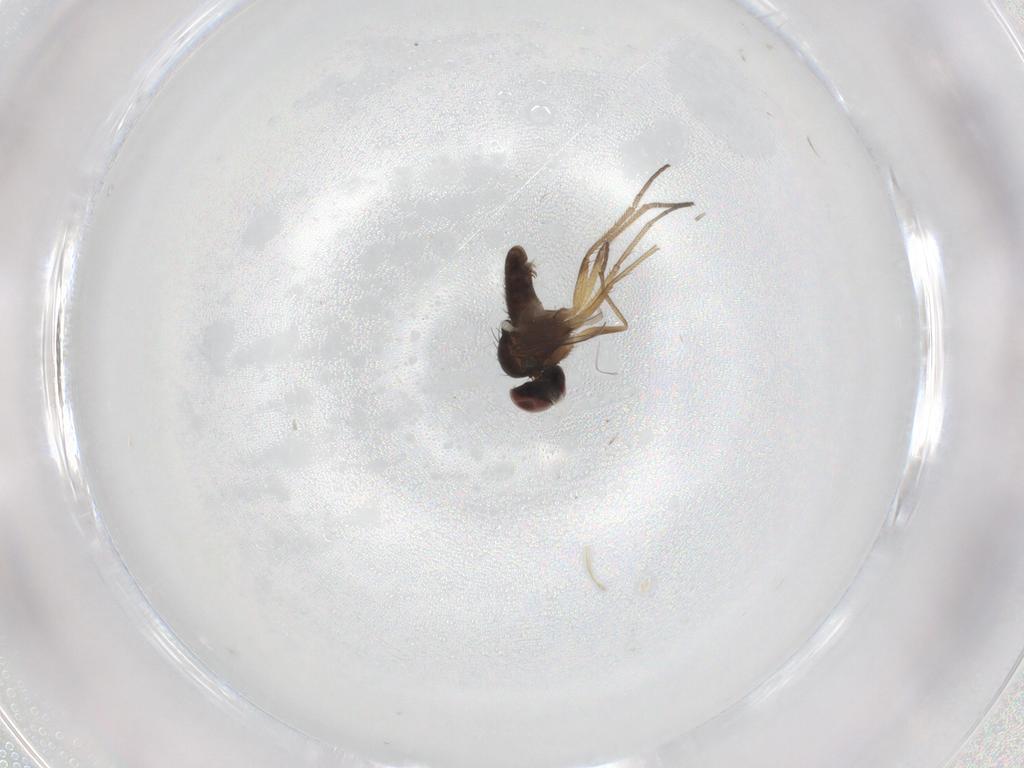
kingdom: Animalia
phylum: Arthropoda
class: Insecta
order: Diptera
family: Dolichopodidae
